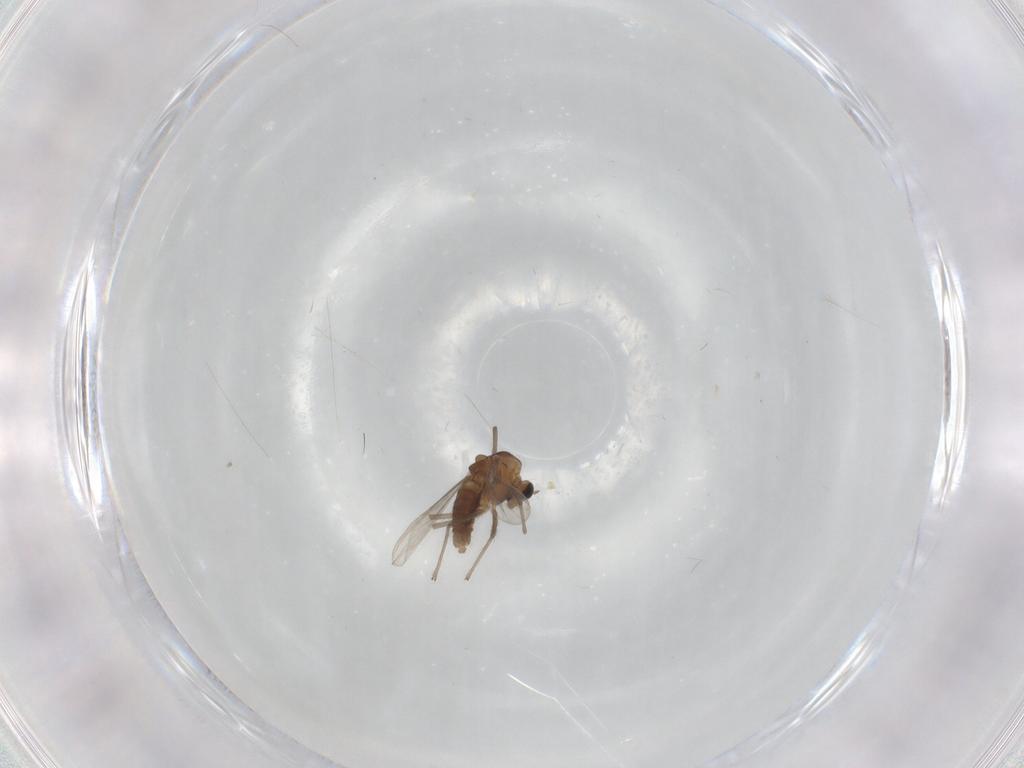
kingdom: Animalia
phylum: Arthropoda
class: Insecta
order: Diptera
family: Chironomidae
